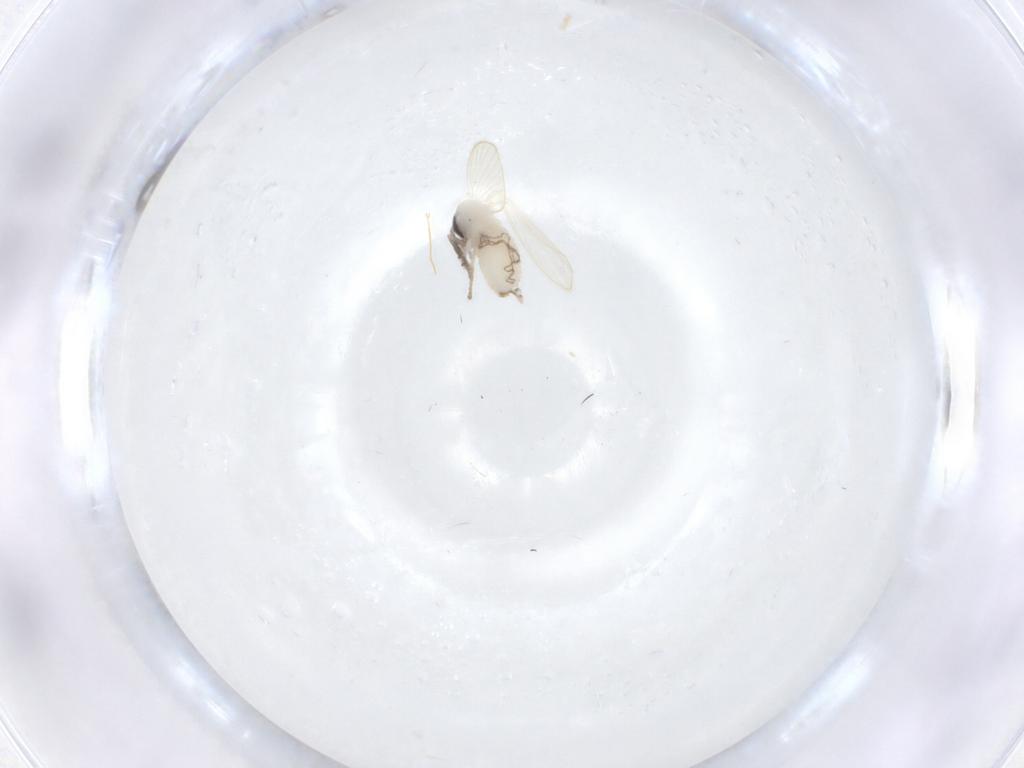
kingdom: Animalia
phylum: Arthropoda
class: Insecta
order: Diptera
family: Psychodidae
